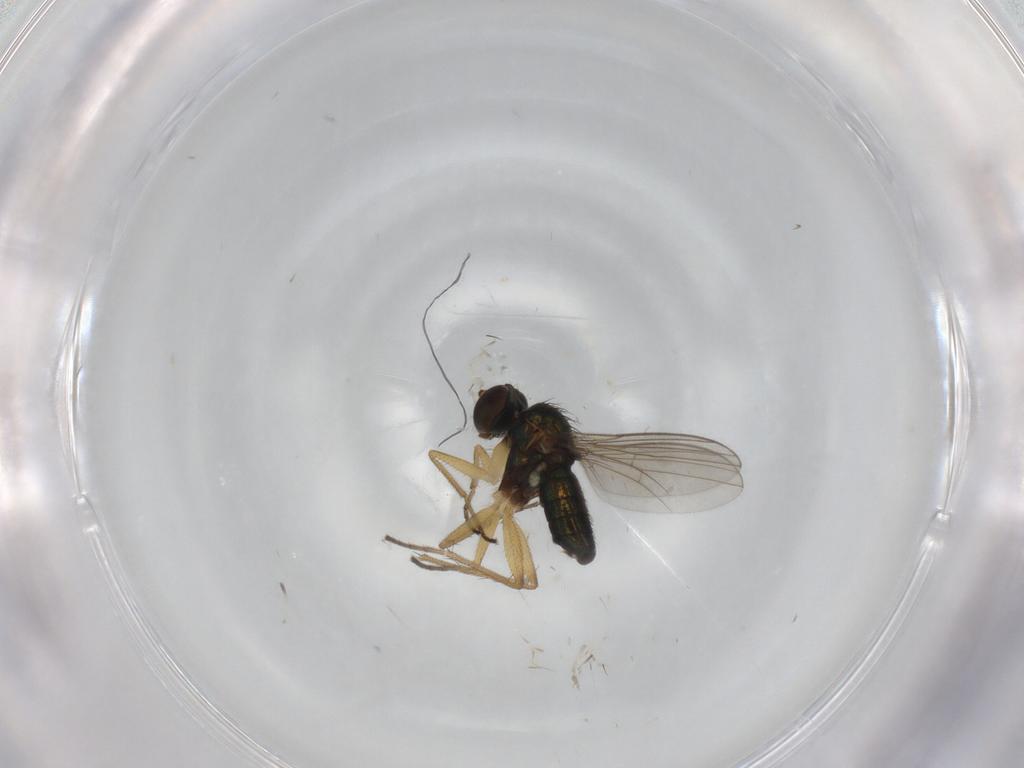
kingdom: Animalia
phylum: Arthropoda
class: Insecta
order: Diptera
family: Dolichopodidae
